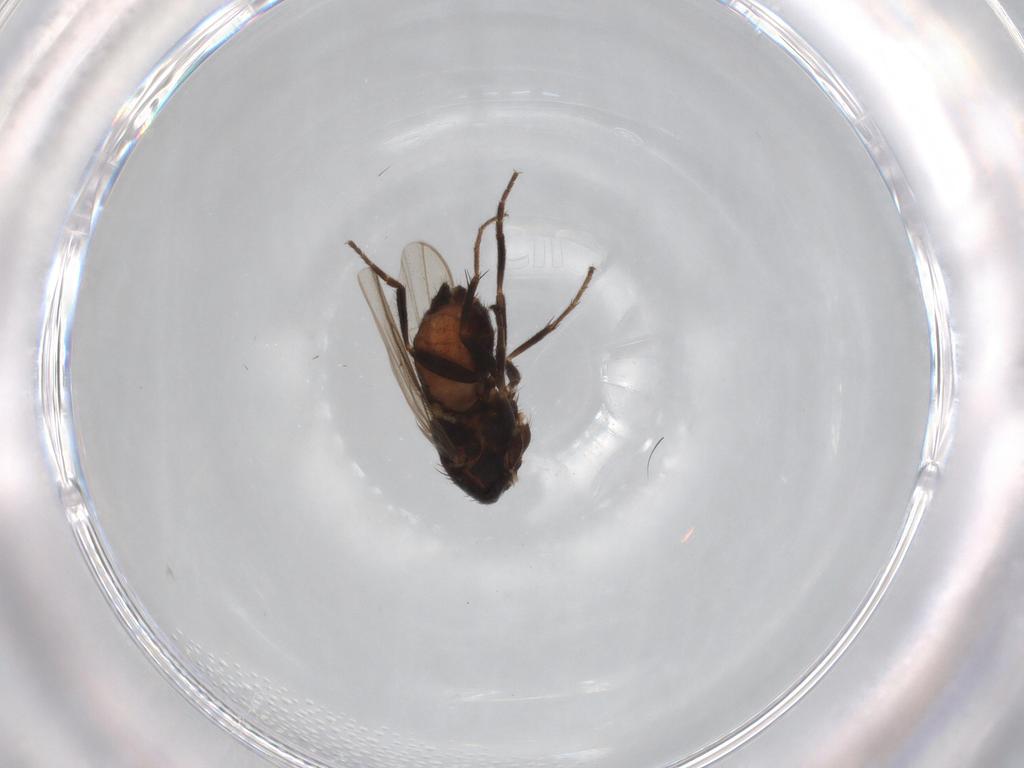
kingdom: Animalia
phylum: Arthropoda
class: Insecta
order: Diptera
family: Sphaeroceridae
